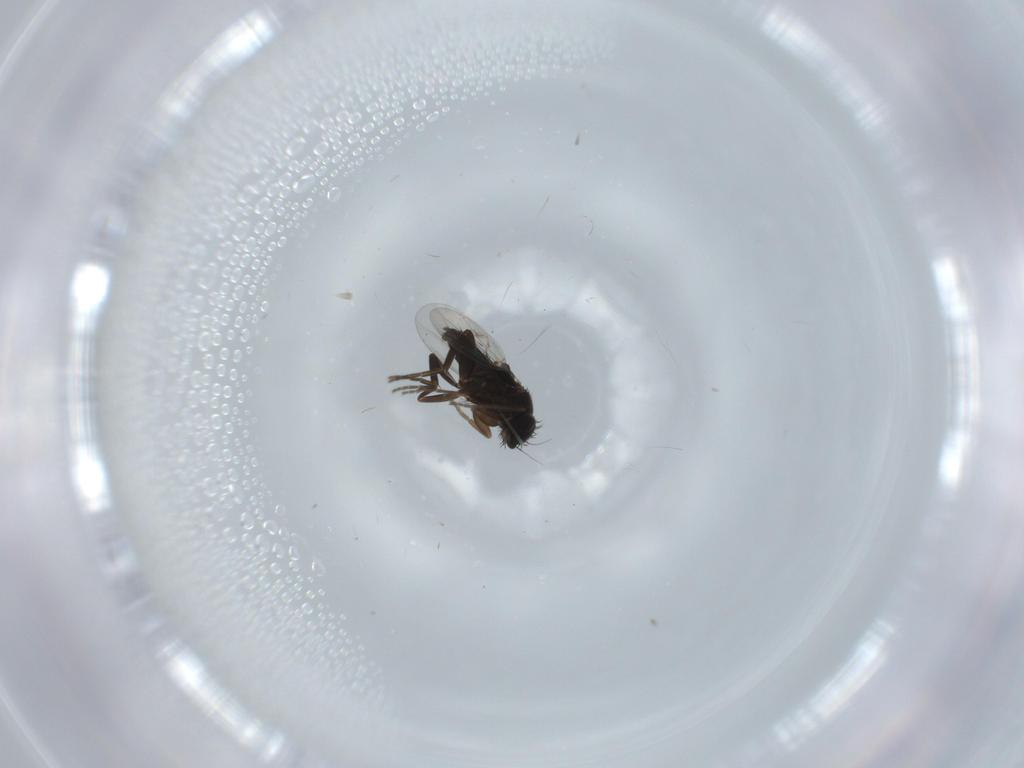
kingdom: Animalia
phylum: Arthropoda
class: Insecta
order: Diptera
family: Phoridae
